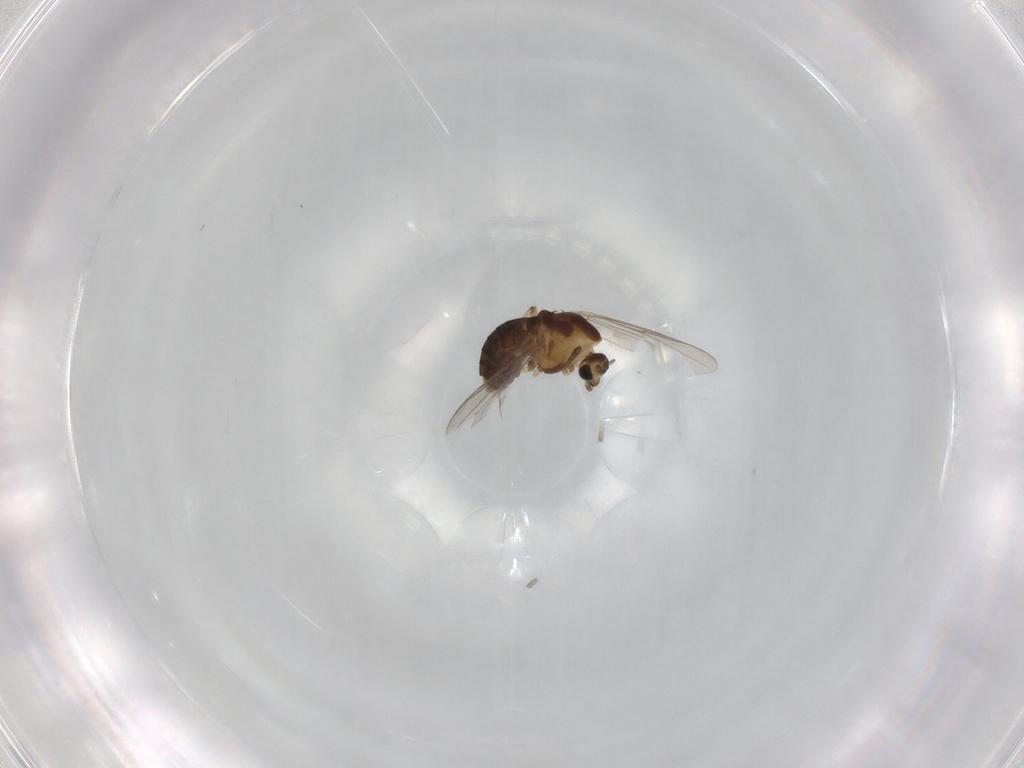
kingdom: Animalia
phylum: Arthropoda
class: Insecta
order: Diptera
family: Chironomidae
